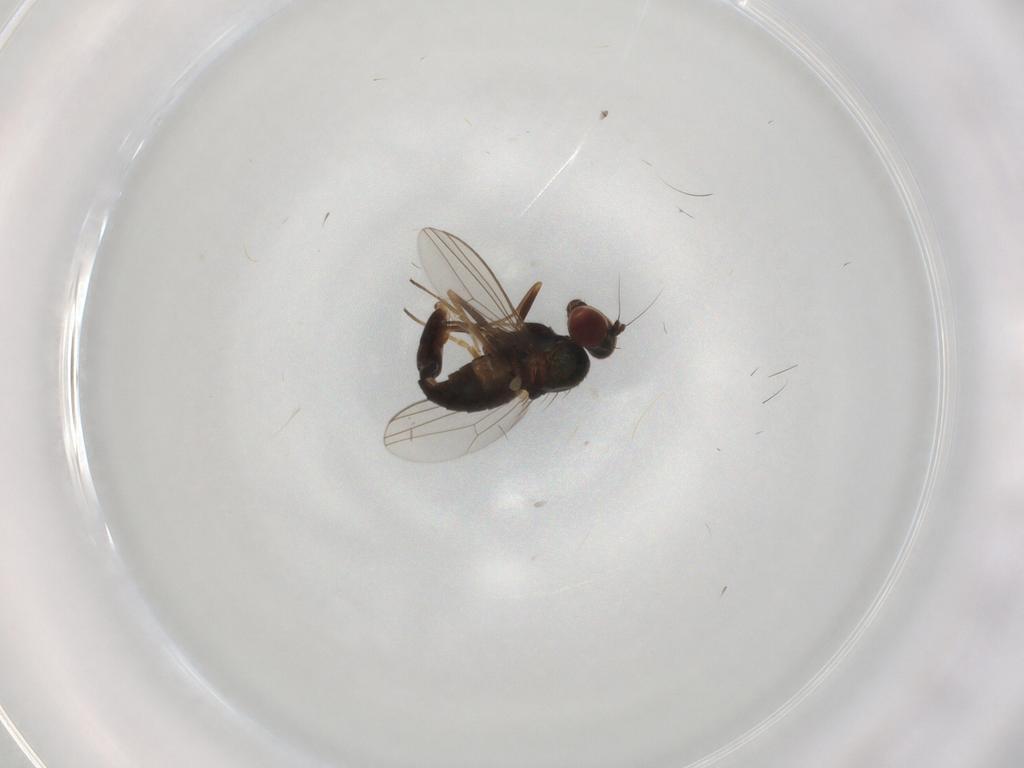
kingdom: Animalia
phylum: Arthropoda
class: Insecta
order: Diptera
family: Dolichopodidae
